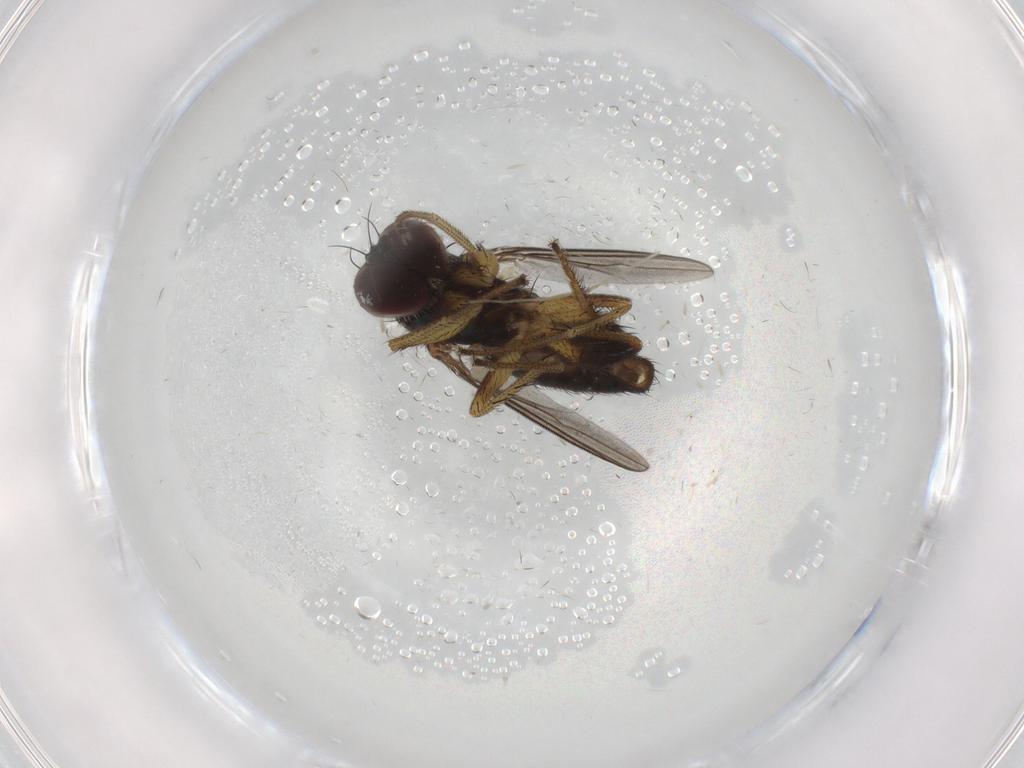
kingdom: Animalia
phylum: Arthropoda
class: Insecta
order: Diptera
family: Dolichopodidae
